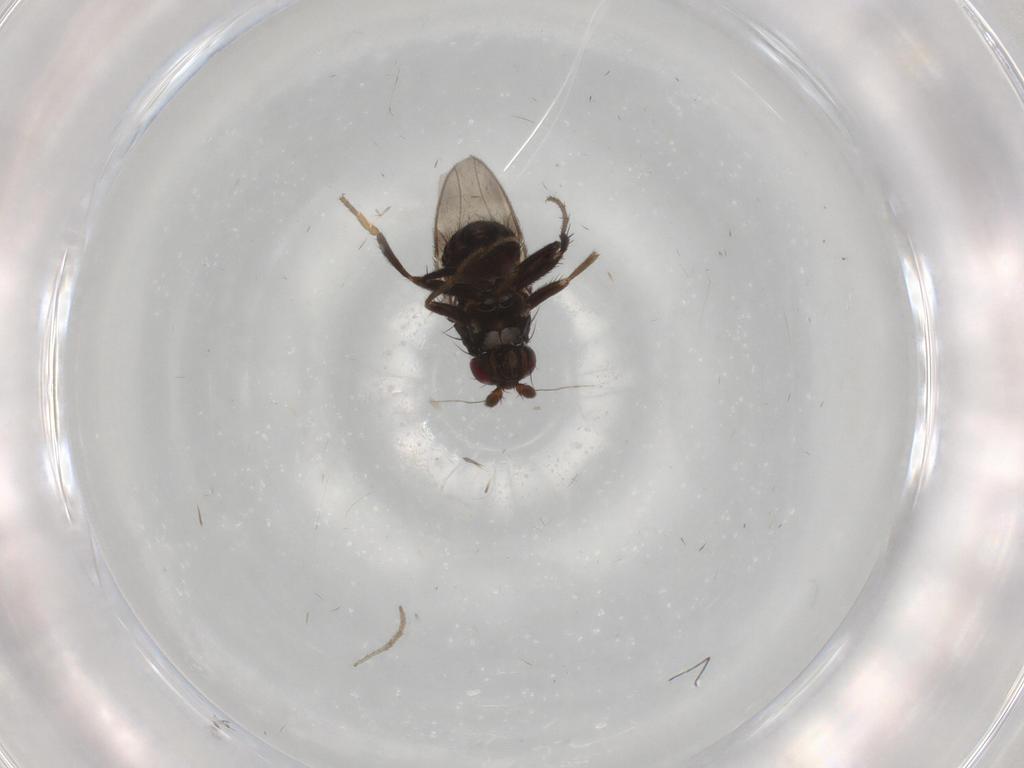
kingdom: Animalia
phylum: Arthropoda
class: Insecta
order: Diptera
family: Chironomidae
